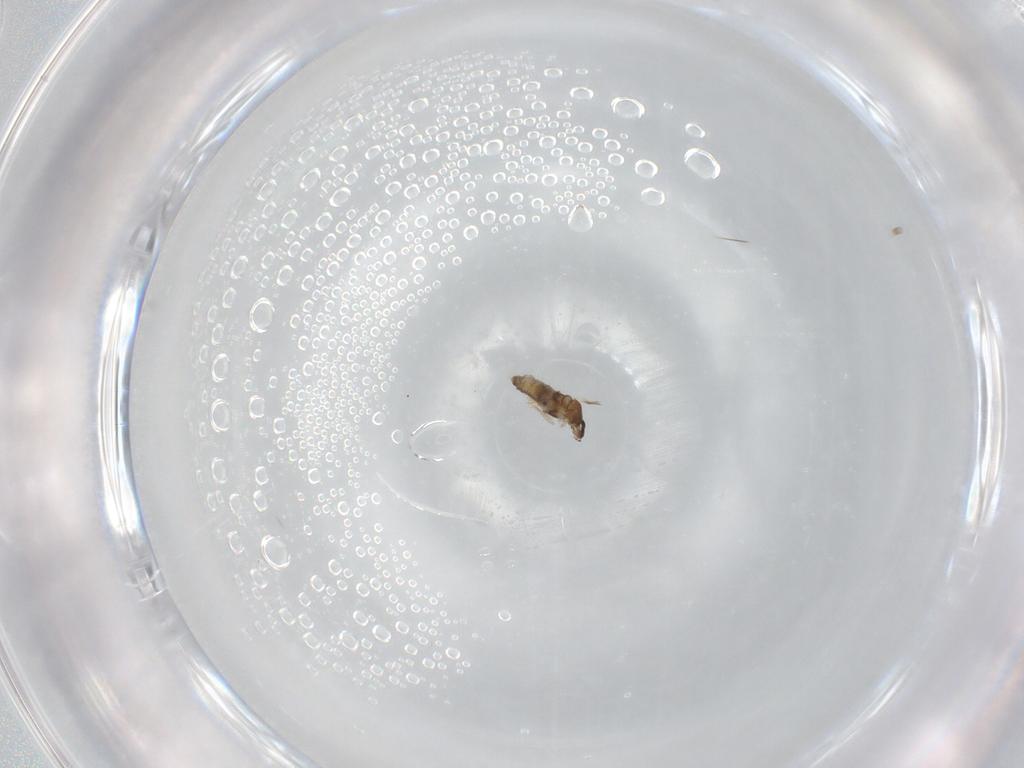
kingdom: Animalia
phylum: Arthropoda
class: Insecta
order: Diptera
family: Cecidomyiidae
